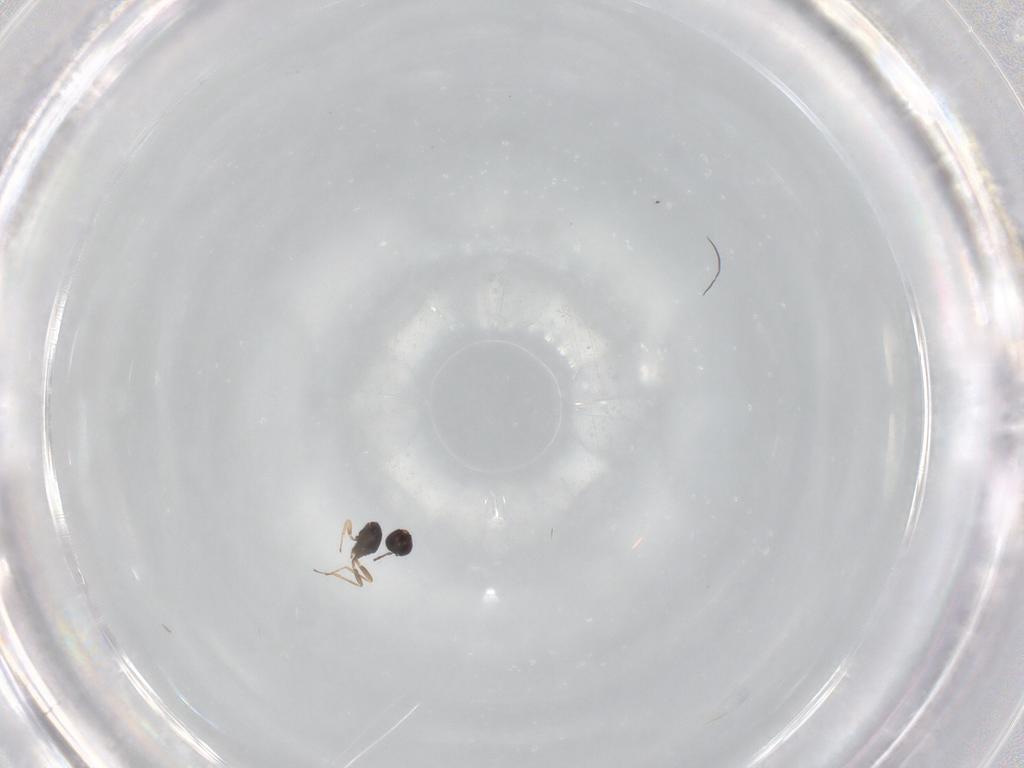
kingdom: Animalia
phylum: Arthropoda
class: Insecta
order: Hymenoptera
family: Mymaridae
